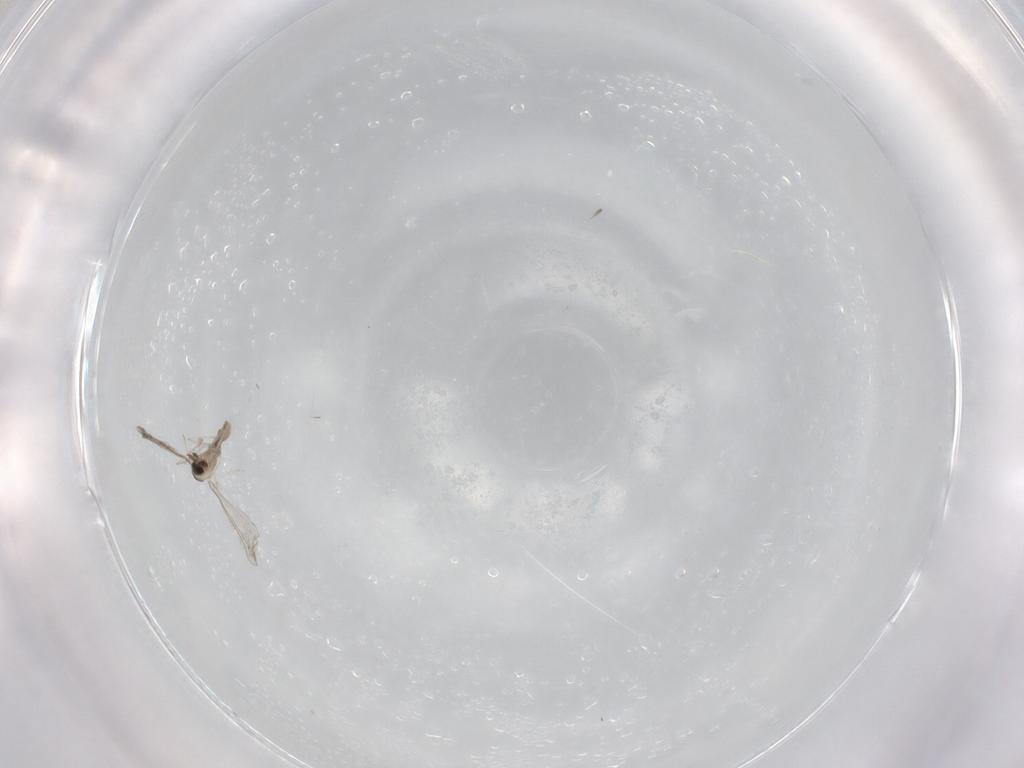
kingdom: Animalia
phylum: Arthropoda
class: Insecta
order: Diptera
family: Cecidomyiidae
